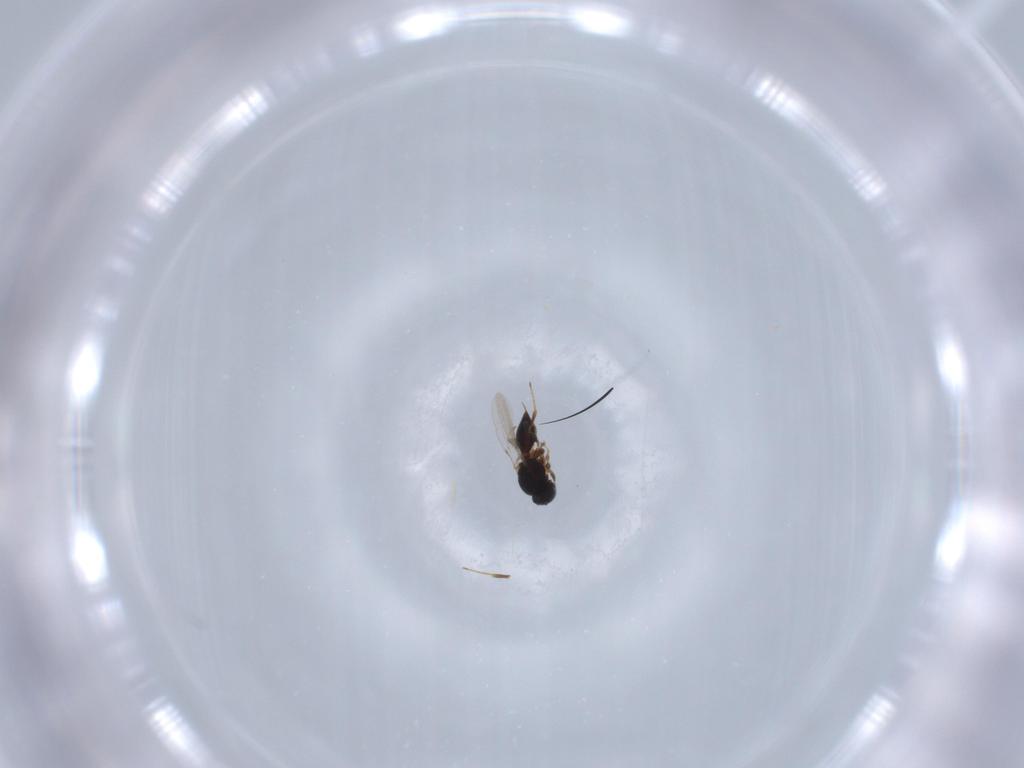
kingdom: Animalia
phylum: Arthropoda
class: Insecta
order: Hymenoptera
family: Platygastridae
